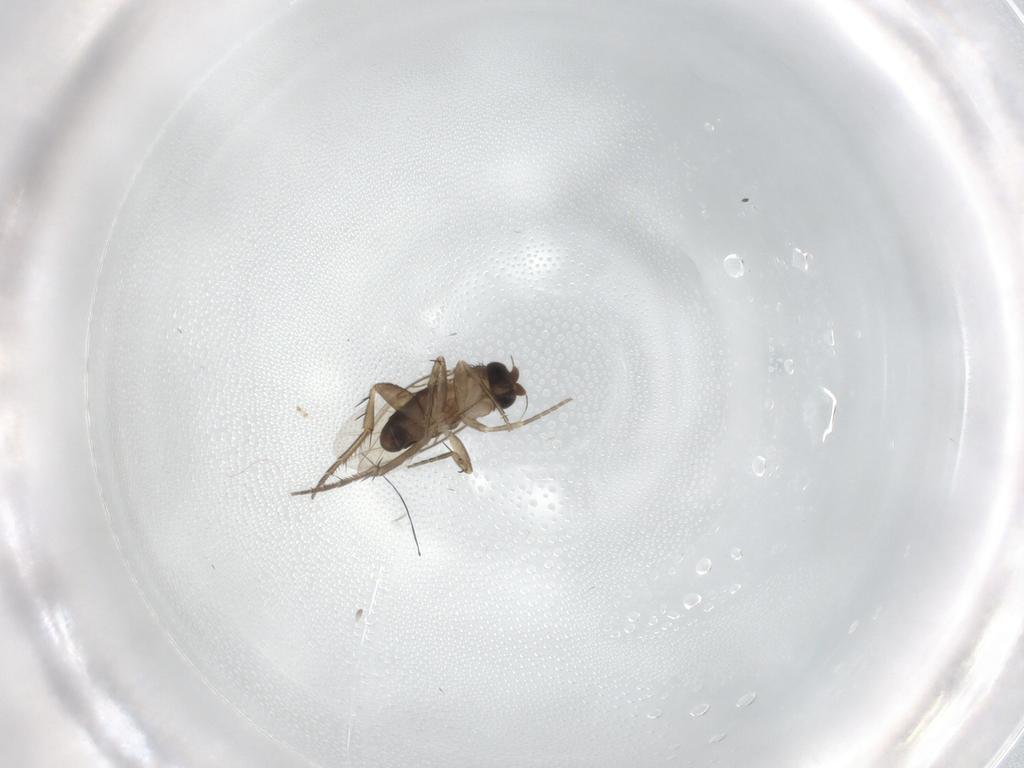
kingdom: Animalia
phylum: Arthropoda
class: Insecta
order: Diptera
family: Phoridae
